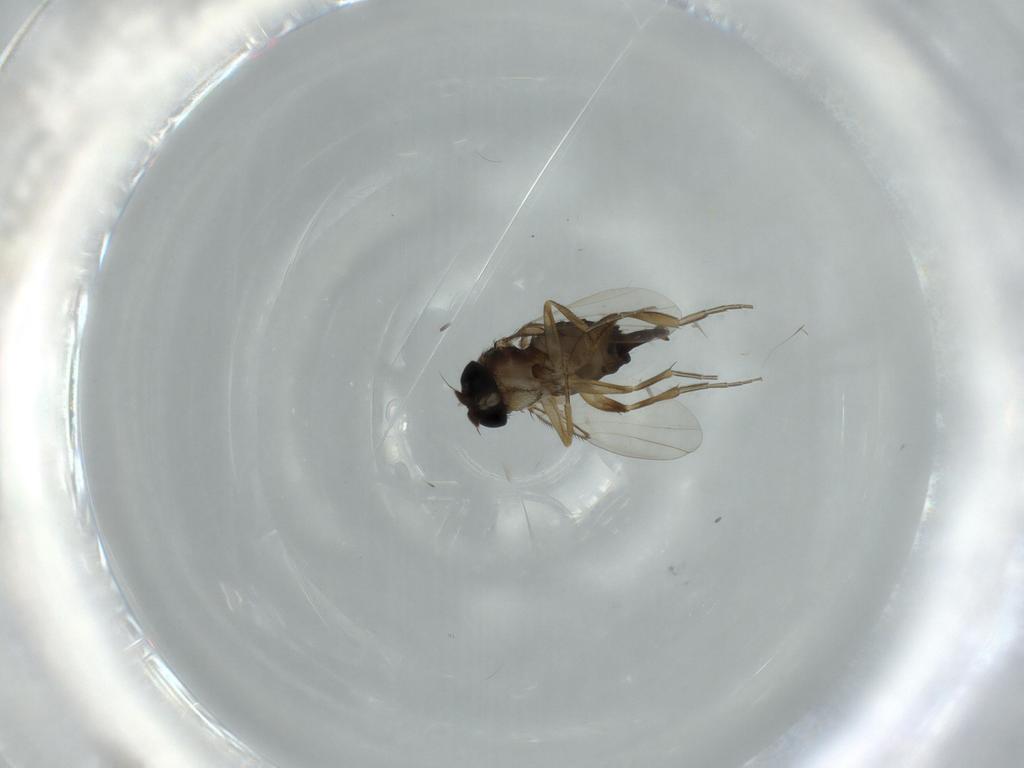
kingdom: Animalia
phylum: Arthropoda
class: Insecta
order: Diptera
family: Phoridae
